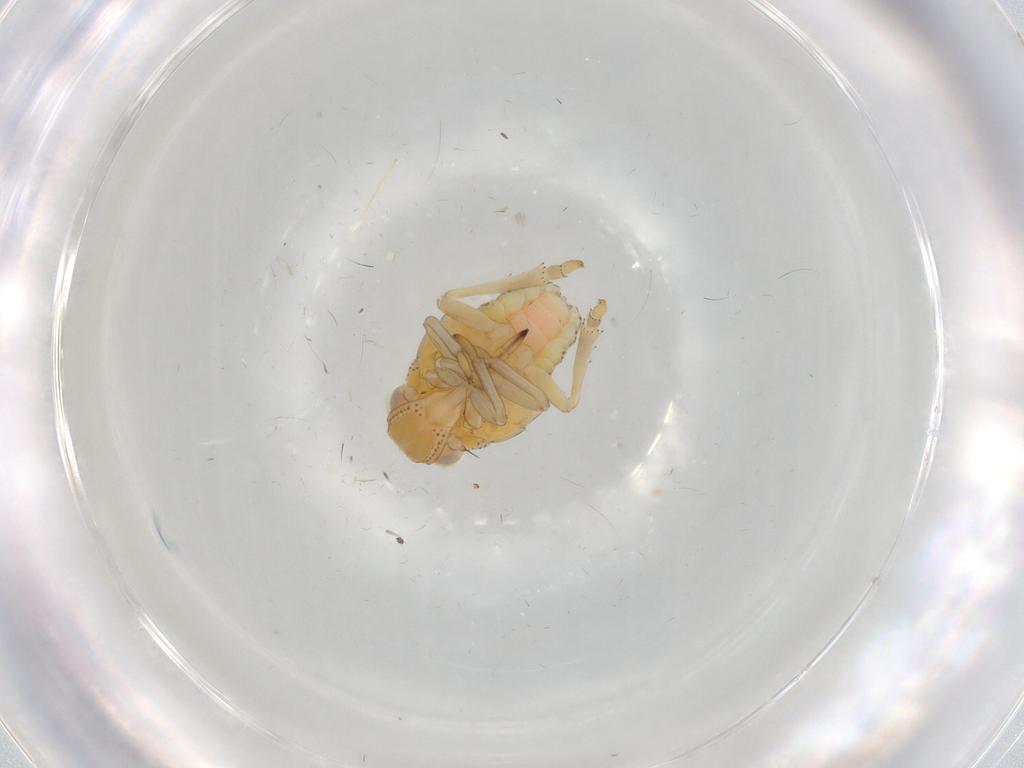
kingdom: Animalia
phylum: Arthropoda
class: Insecta
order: Hemiptera
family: Tropiduchidae
